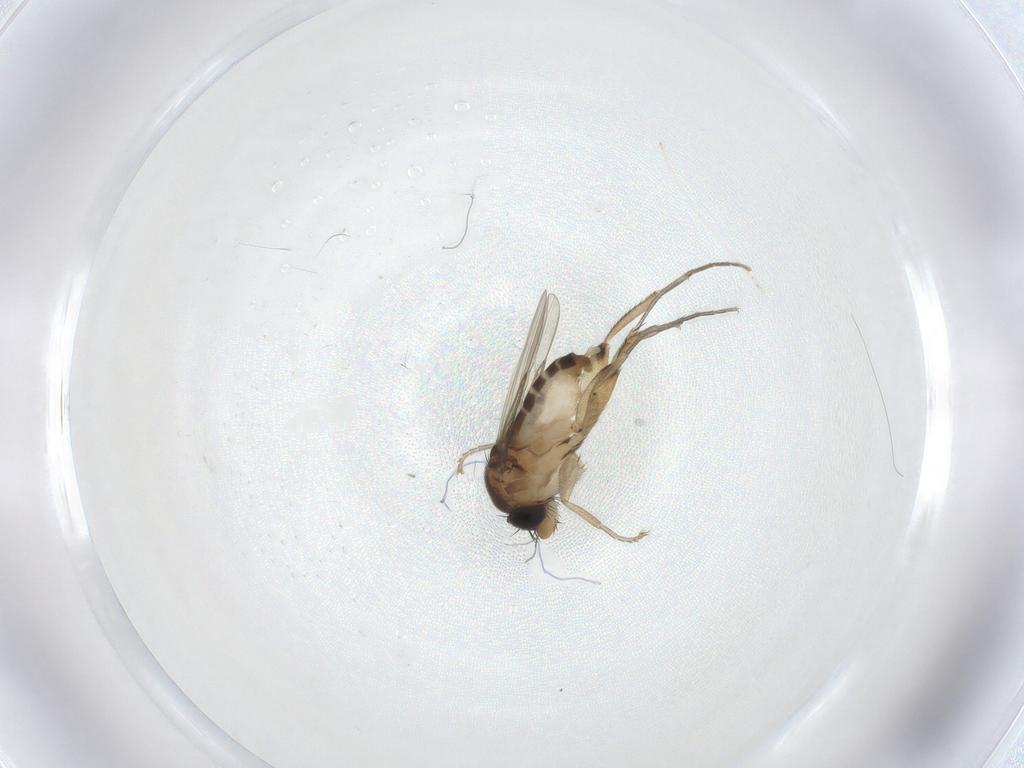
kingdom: Animalia
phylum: Arthropoda
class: Insecta
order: Diptera
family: Phoridae
